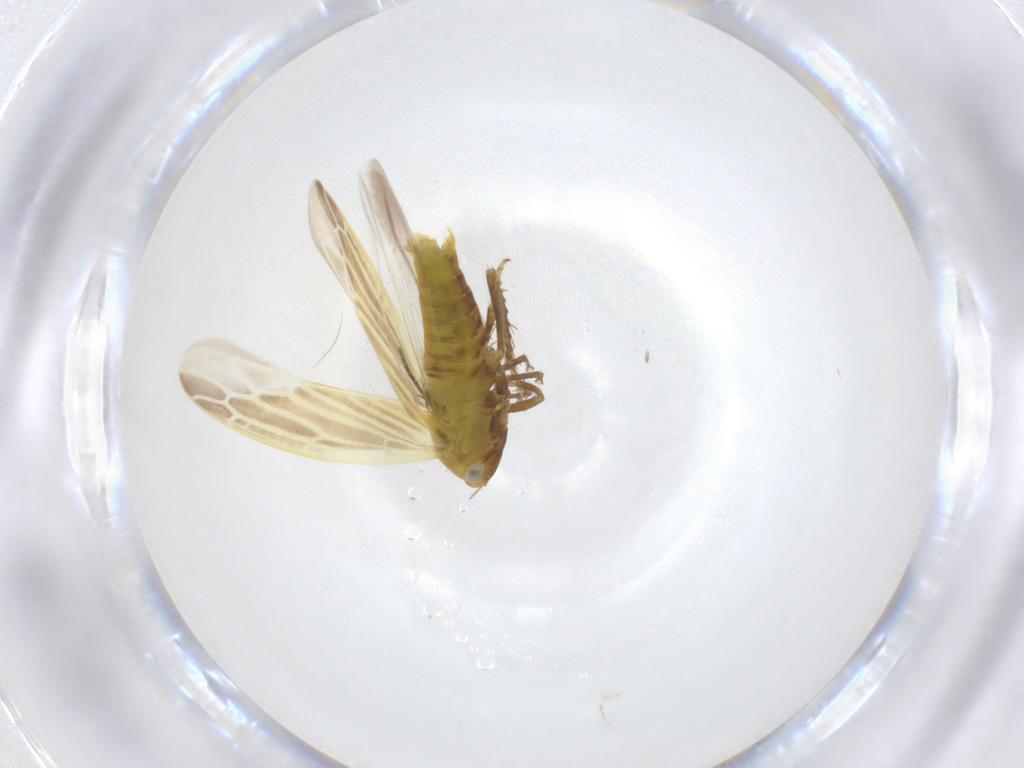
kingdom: Animalia
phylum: Arthropoda
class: Insecta
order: Hemiptera
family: Cicadellidae
